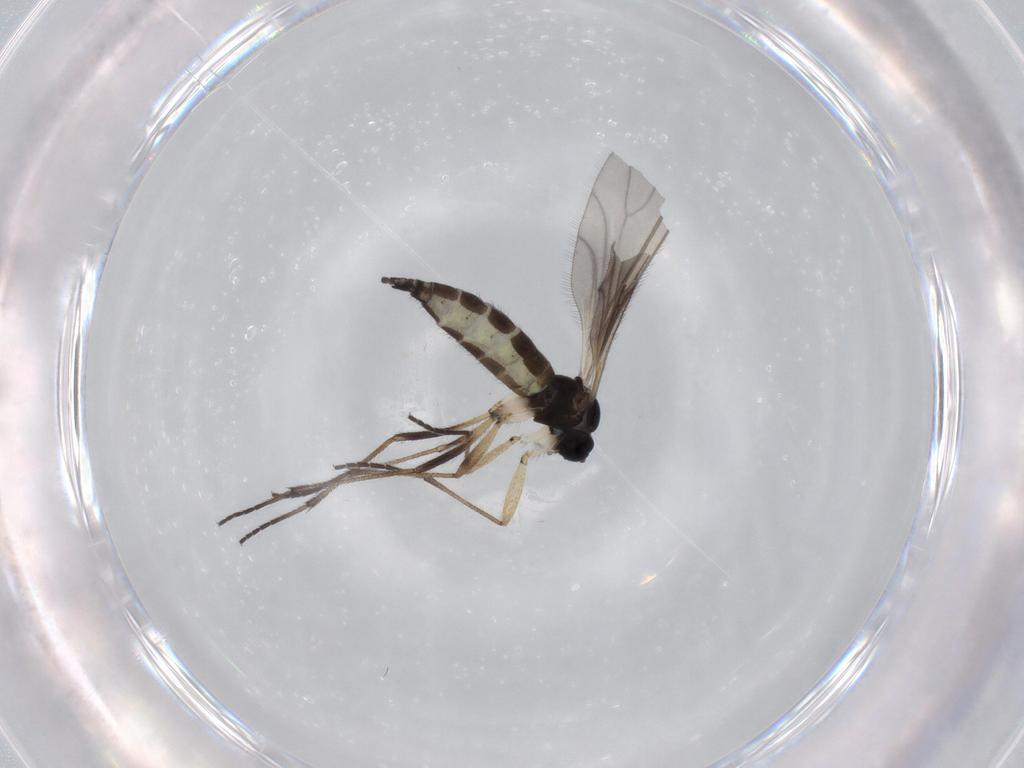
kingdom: Animalia
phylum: Arthropoda
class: Insecta
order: Diptera
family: Sciaridae
